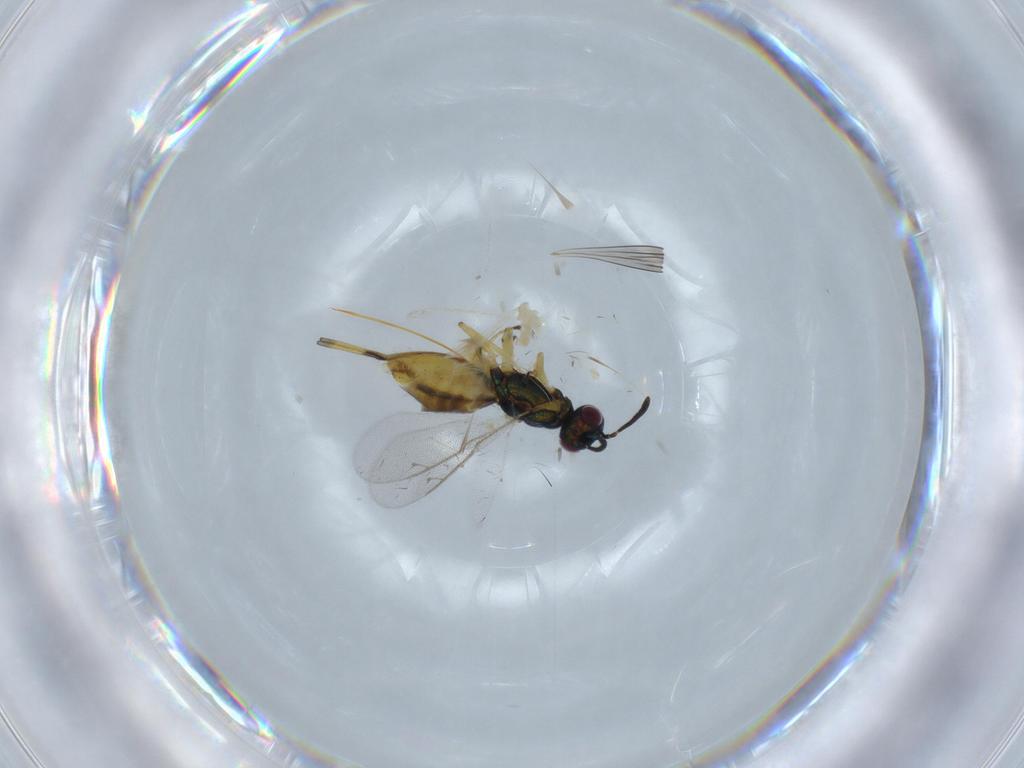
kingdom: Animalia
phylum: Arthropoda
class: Insecta
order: Hymenoptera
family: Eupelmidae
